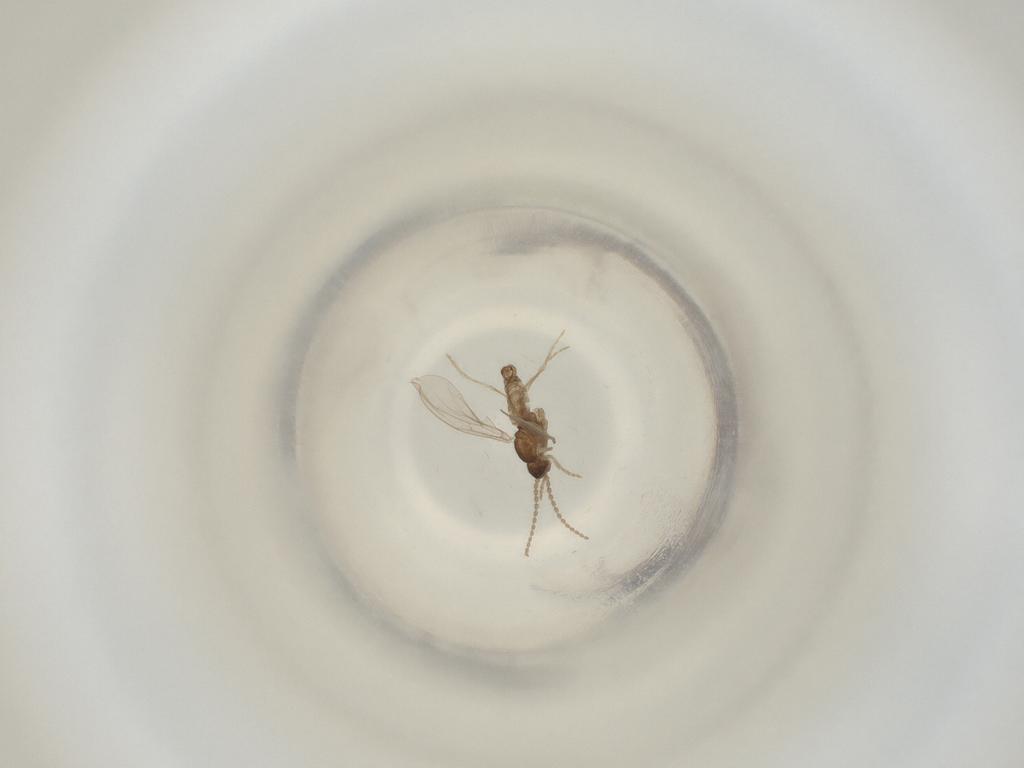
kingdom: Animalia
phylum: Arthropoda
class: Insecta
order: Diptera
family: Cecidomyiidae
